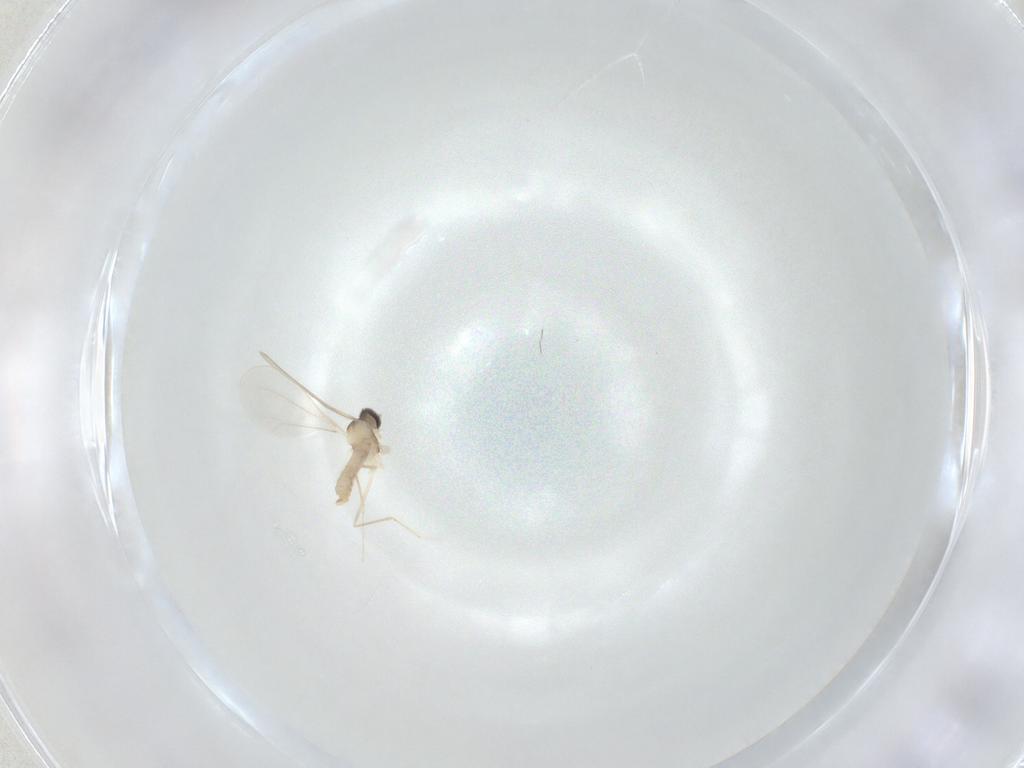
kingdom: Animalia
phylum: Arthropoda
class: Insecta
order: Diptera
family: Cecidomyiidae
